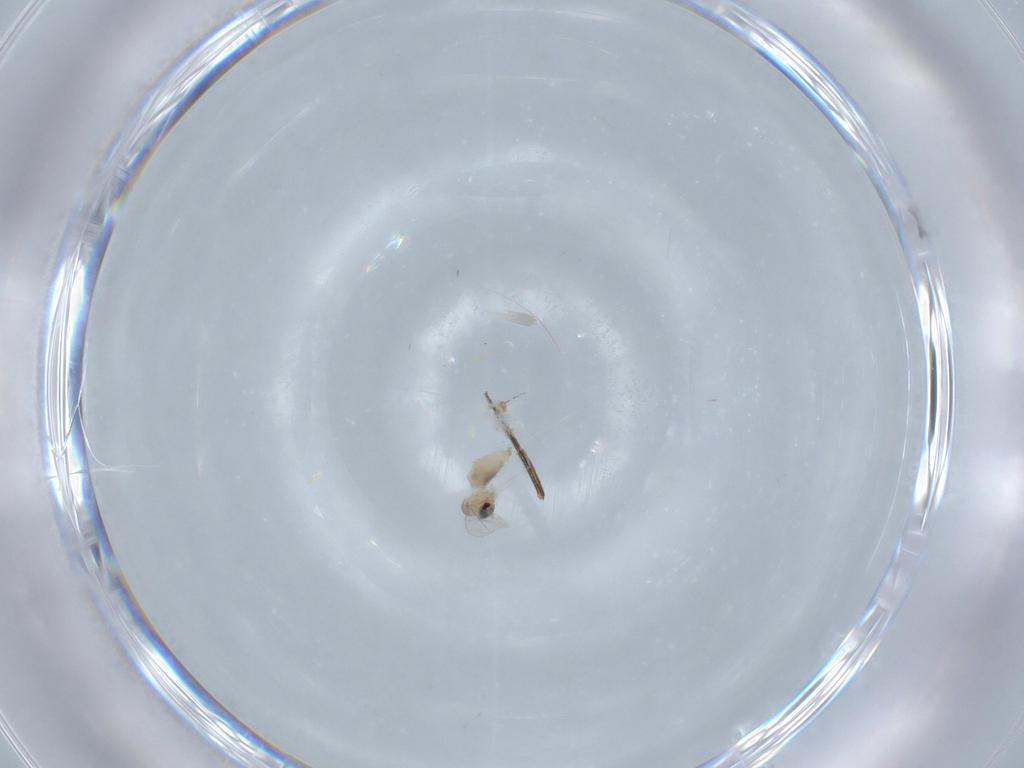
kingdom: Animalia
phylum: Arthropoda
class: Insecta
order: Diptera
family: Cecidomyiidae
